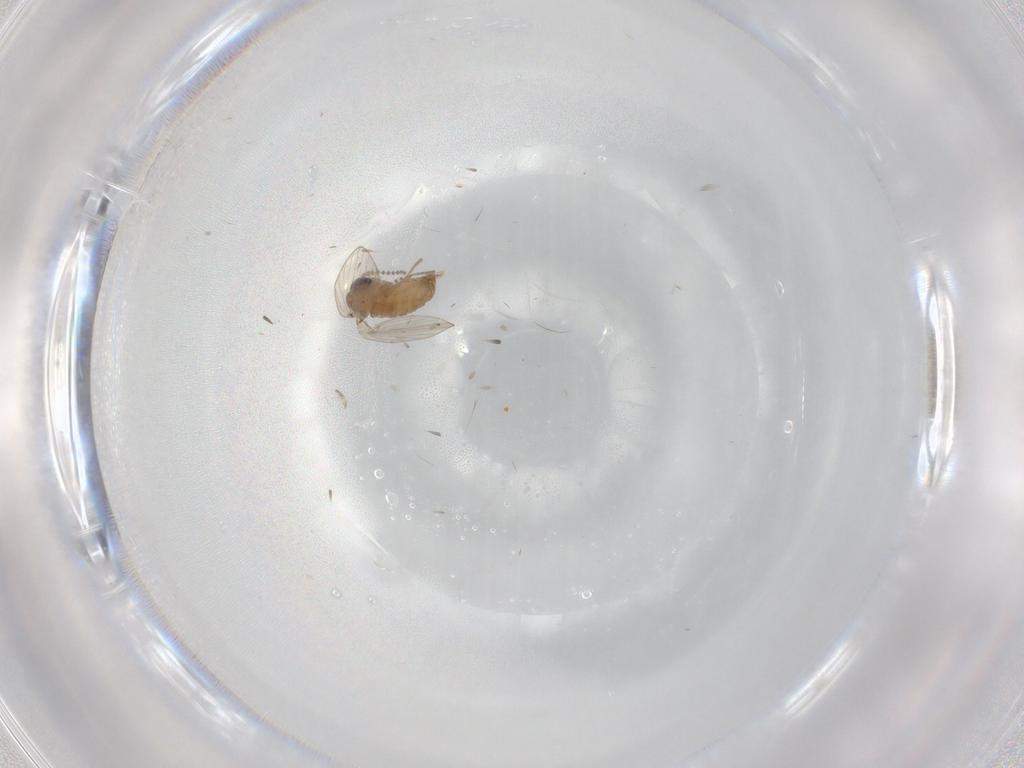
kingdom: Animalia
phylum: Arthropoda
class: Insecta
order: Diptera
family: Psychodidae
